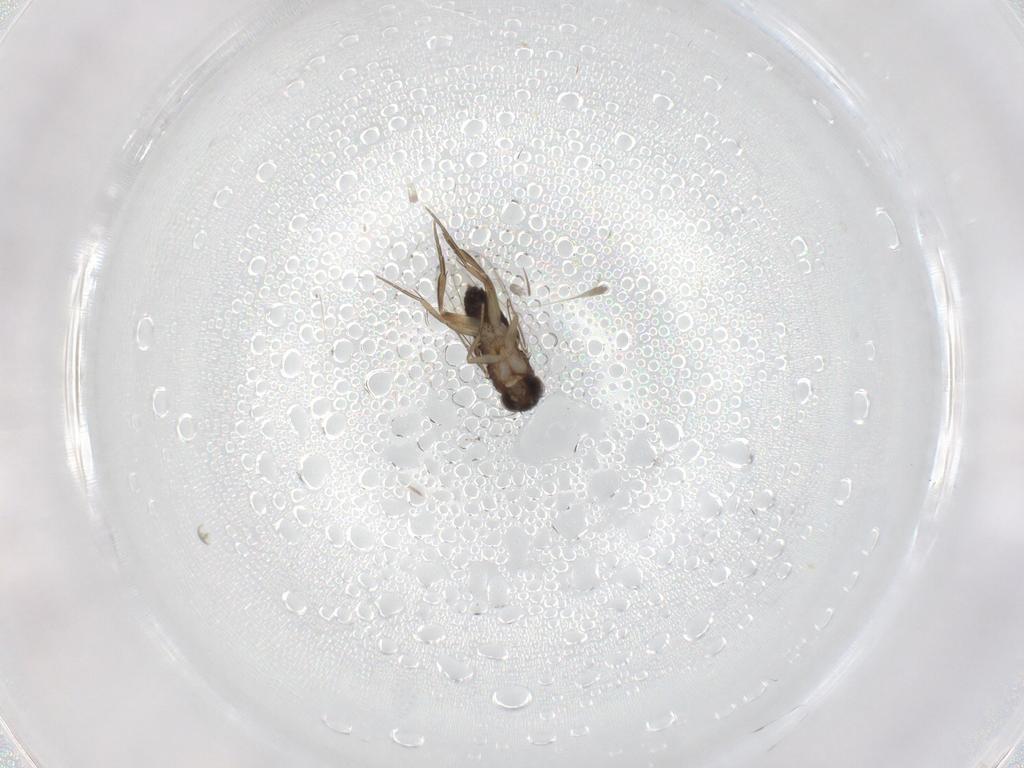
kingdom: Animalia
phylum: Arthropoda
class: Insecta
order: Diptera
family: Phoridae
